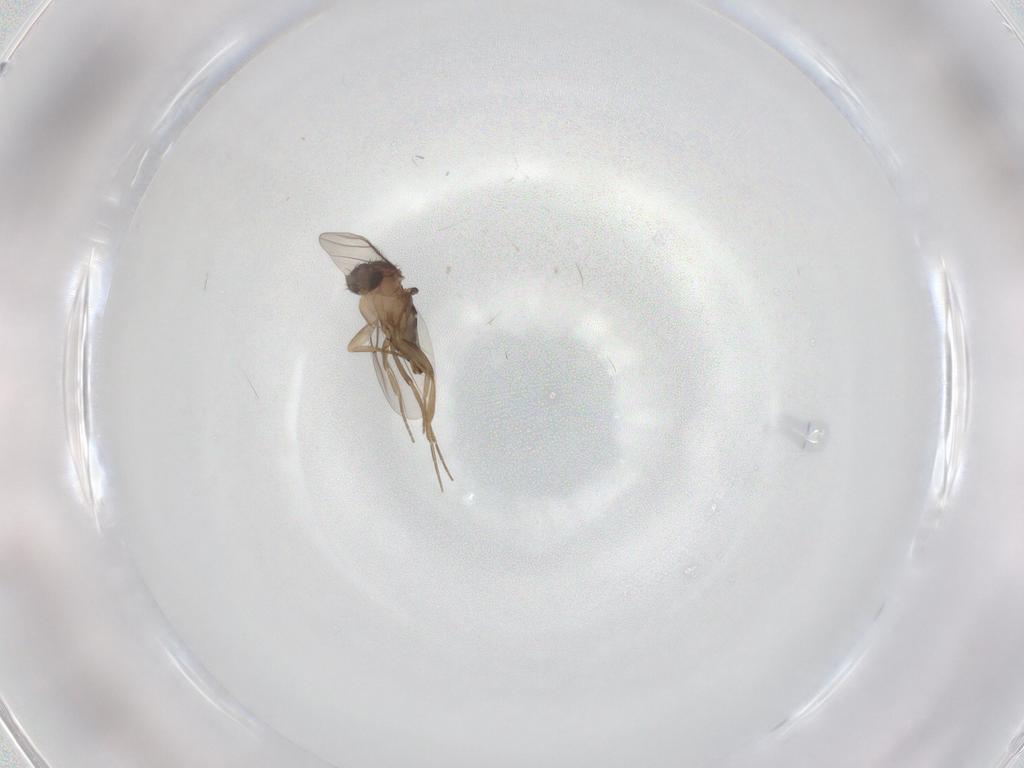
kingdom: Animalia
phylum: Arthropoda
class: Insecta
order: Diptera
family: Phoridae
